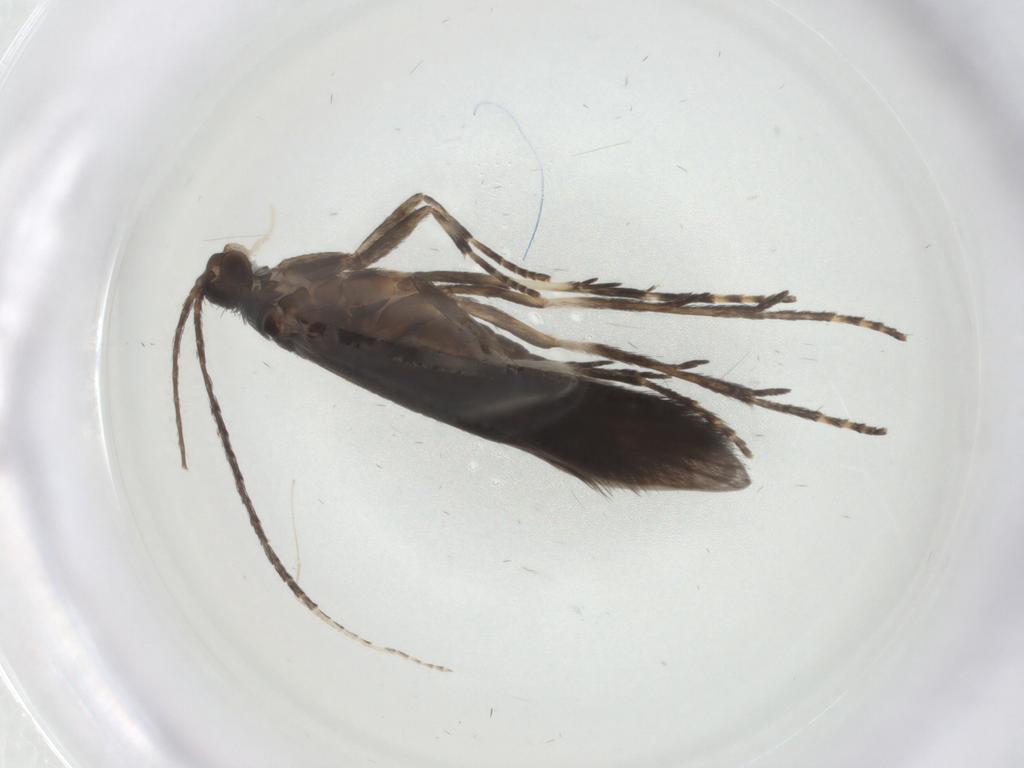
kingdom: Animalia
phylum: Arthropoda
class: Insecta
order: Trichoptera
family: Xiphocentronidae
